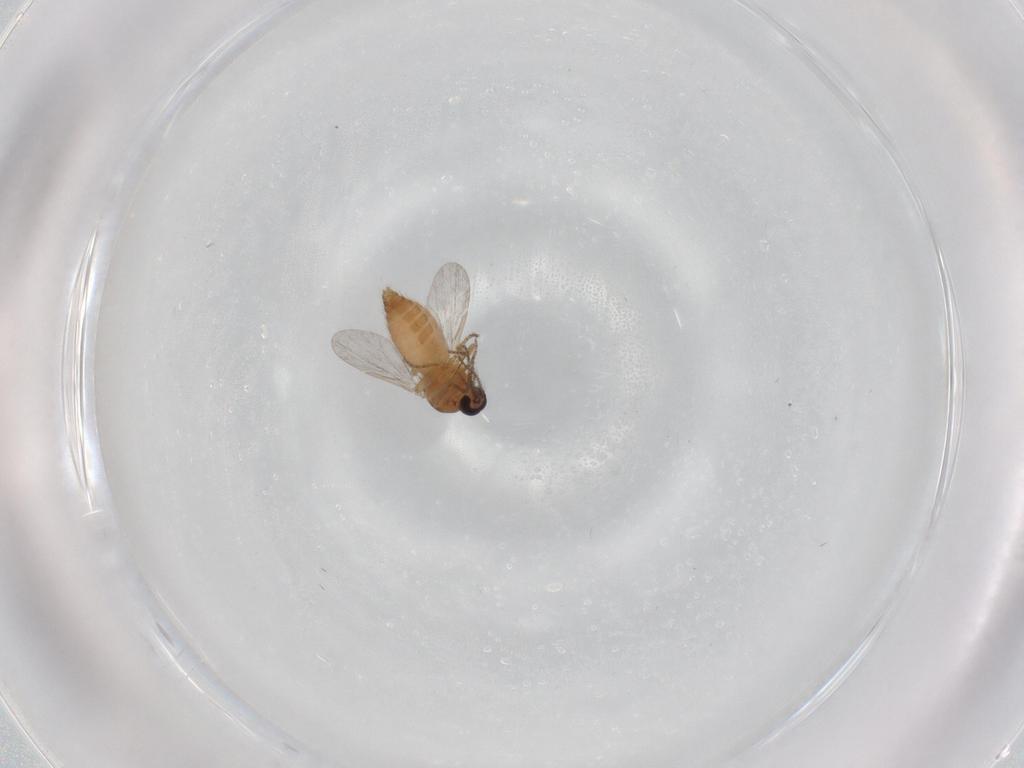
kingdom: Animalia
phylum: Arthropoda
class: Insecta
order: Diptera
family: Ceratopogonidae
